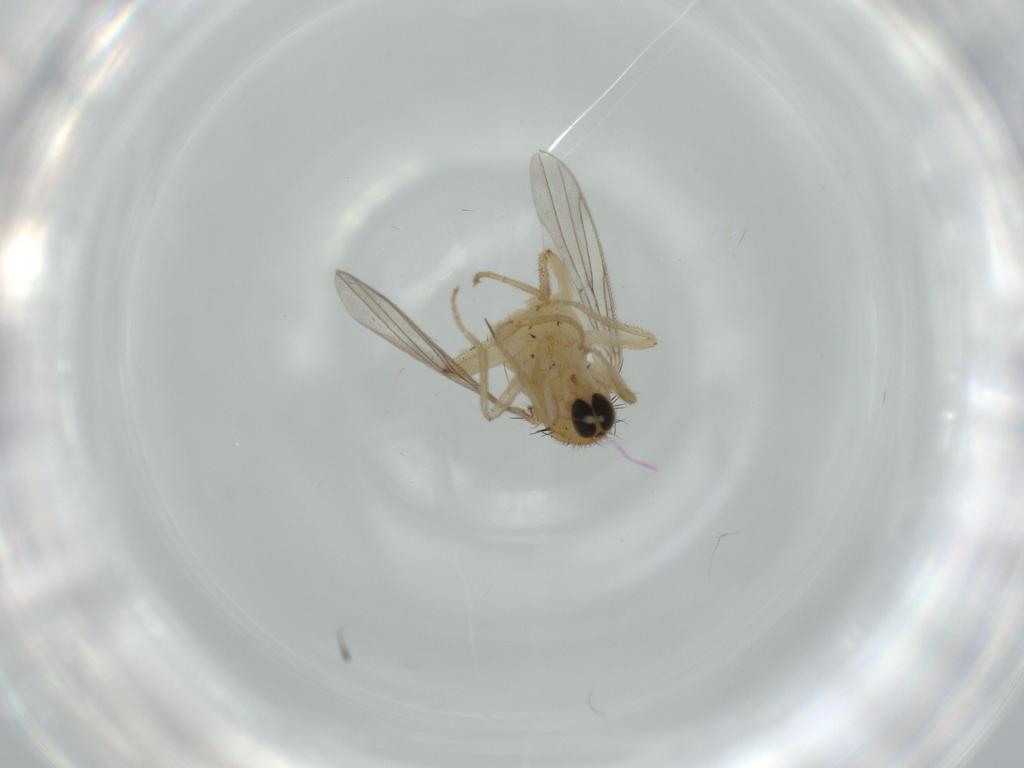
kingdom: Animalia
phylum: Arthropoda
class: Insecta
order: Diptera
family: Hybotidae
